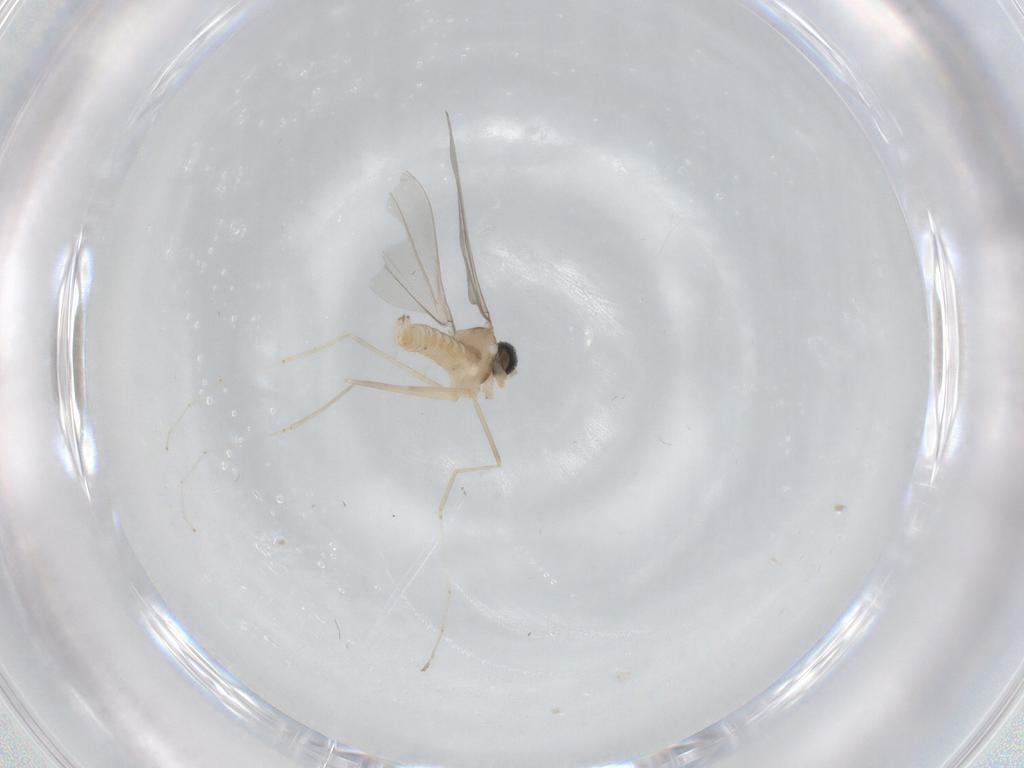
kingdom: Animalia
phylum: Arthropoda
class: Insecta
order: Diptera
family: Cecidomyiidae
